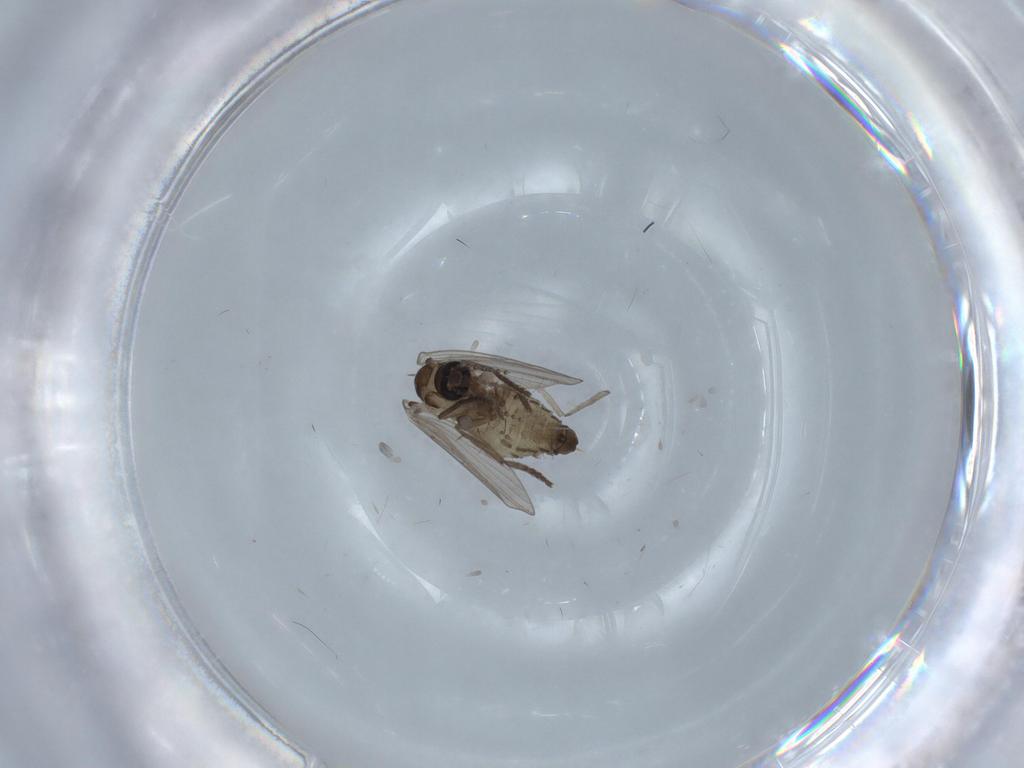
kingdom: Animalia
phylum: Arthropoda
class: Insecta
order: Diptera
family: Psychodidae
